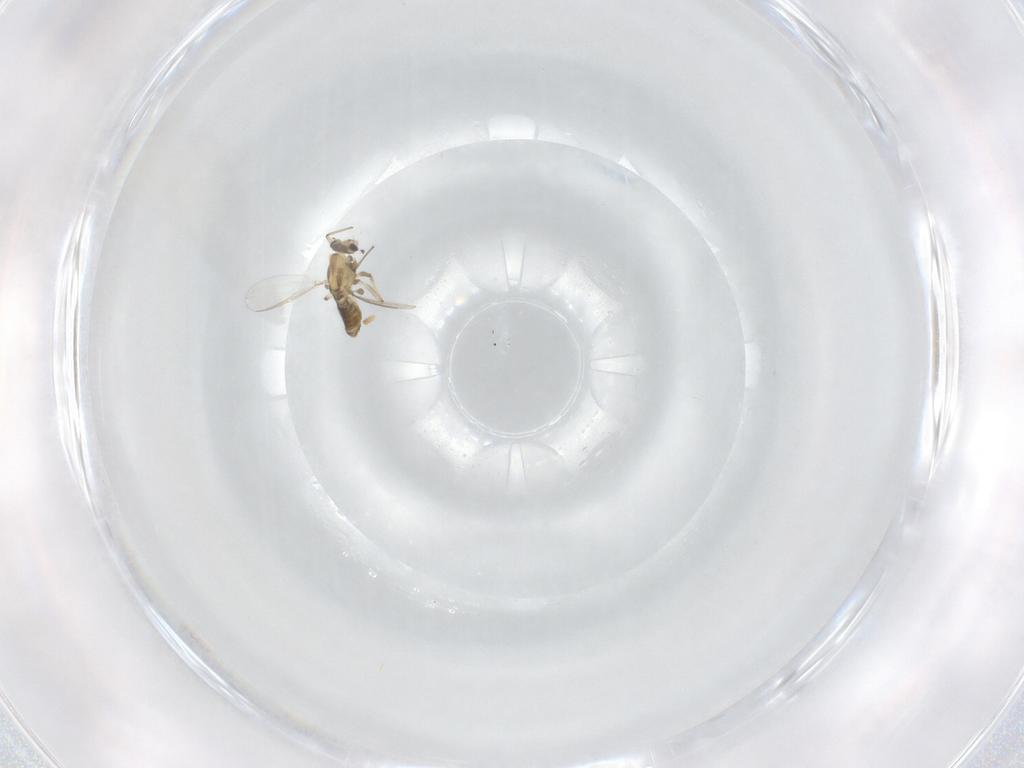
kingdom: Animalia
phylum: Arthropoda
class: Insecta
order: Diptera
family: Chironomidae
